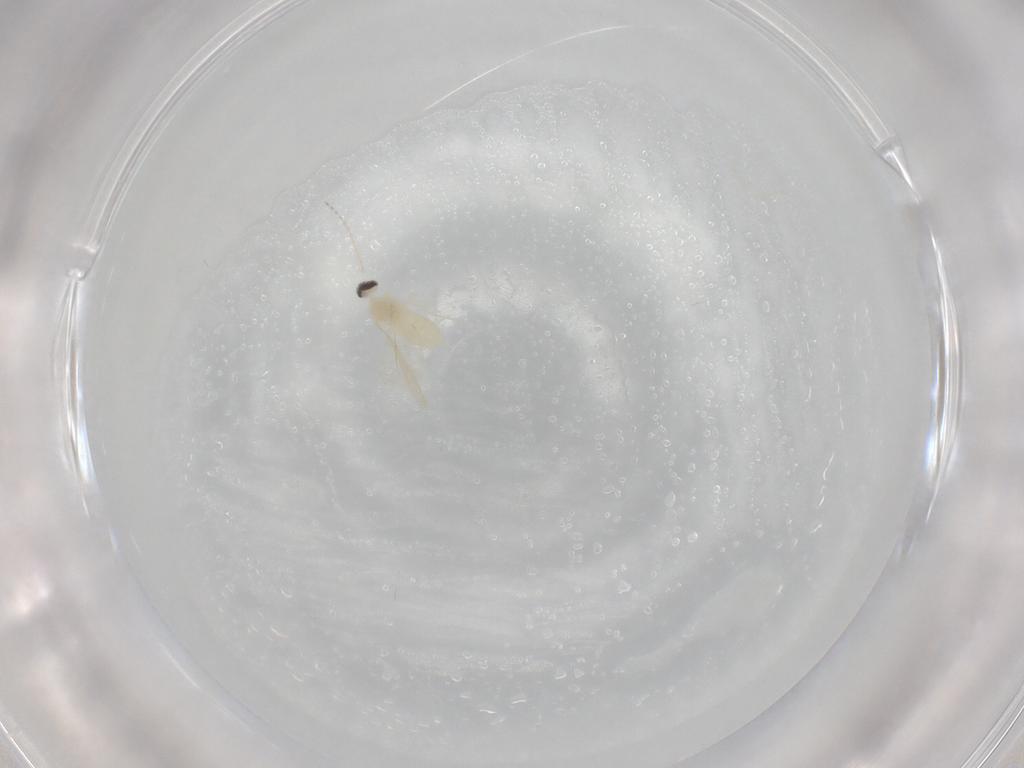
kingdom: Animalia
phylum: Arthropoda
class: Insecta
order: Diptera
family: Cecidomyiidae
